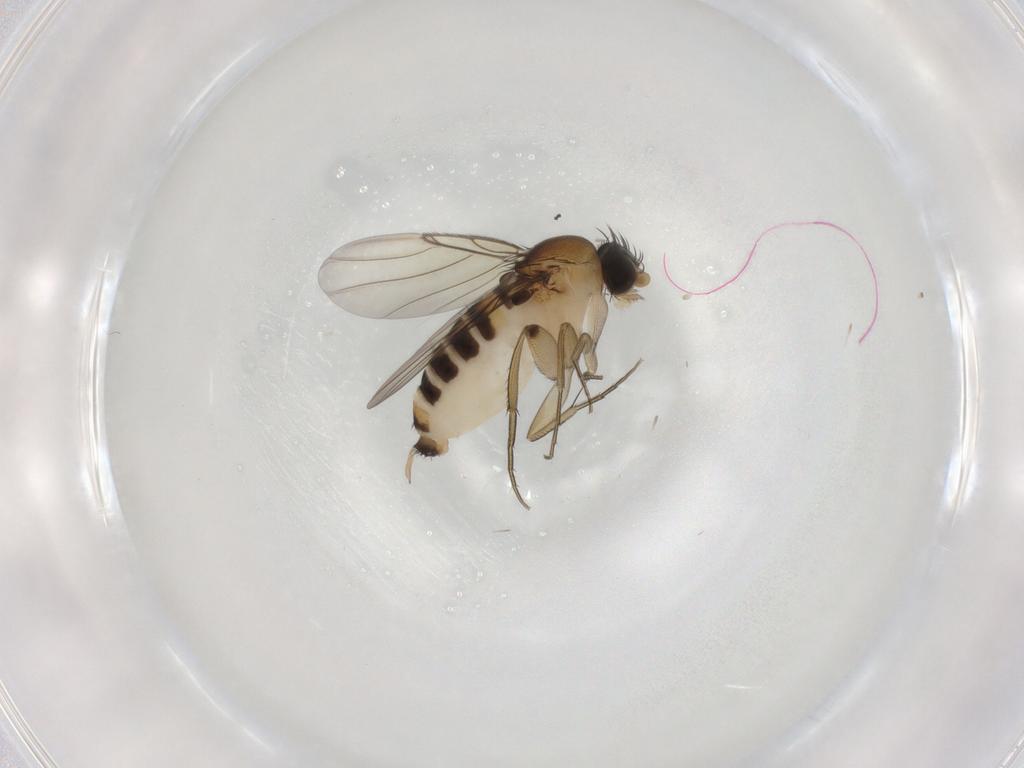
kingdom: Animalia
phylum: Arthropoda
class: Insecta
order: Diptera
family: Phoridae
